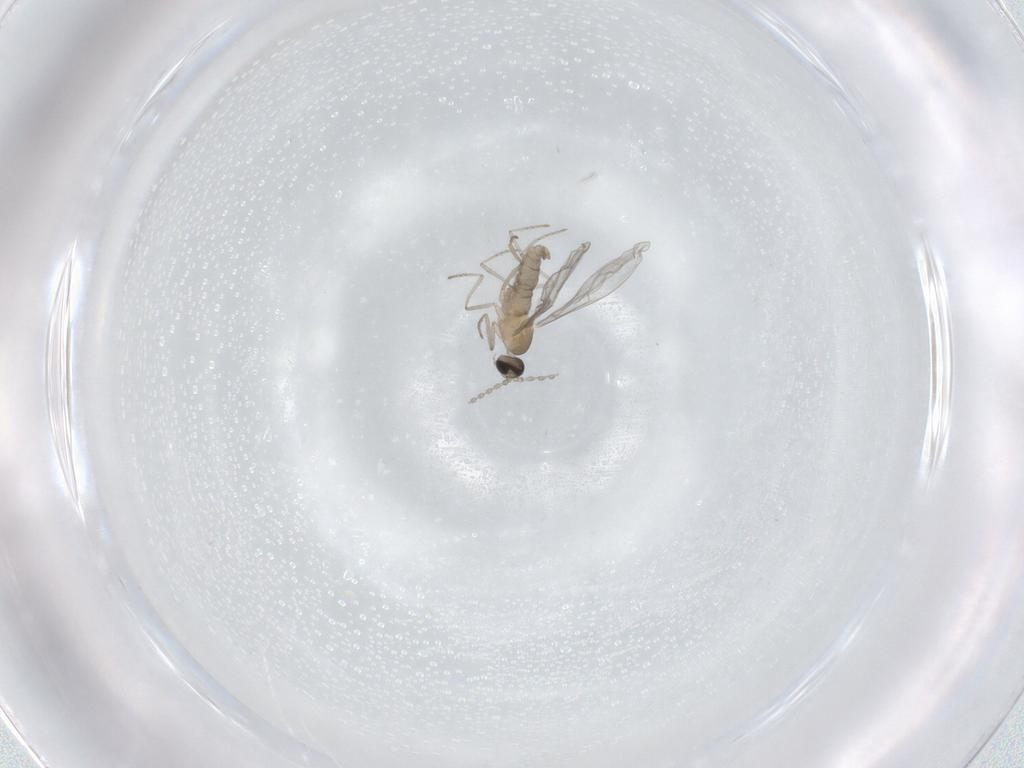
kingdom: Animalia
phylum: Arthropoda
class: Insecta
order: Diptera
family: Cecidomyiidae
